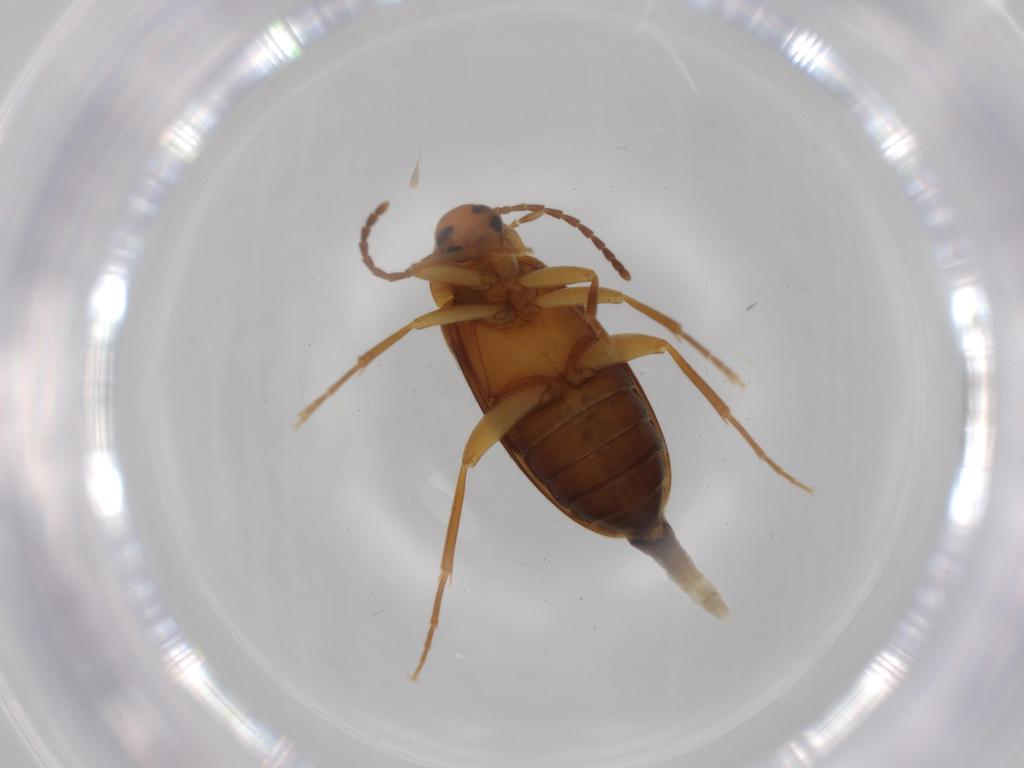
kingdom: Animalia
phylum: Arthropoda
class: Insecta
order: Coleoptera
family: Scraptiidae
